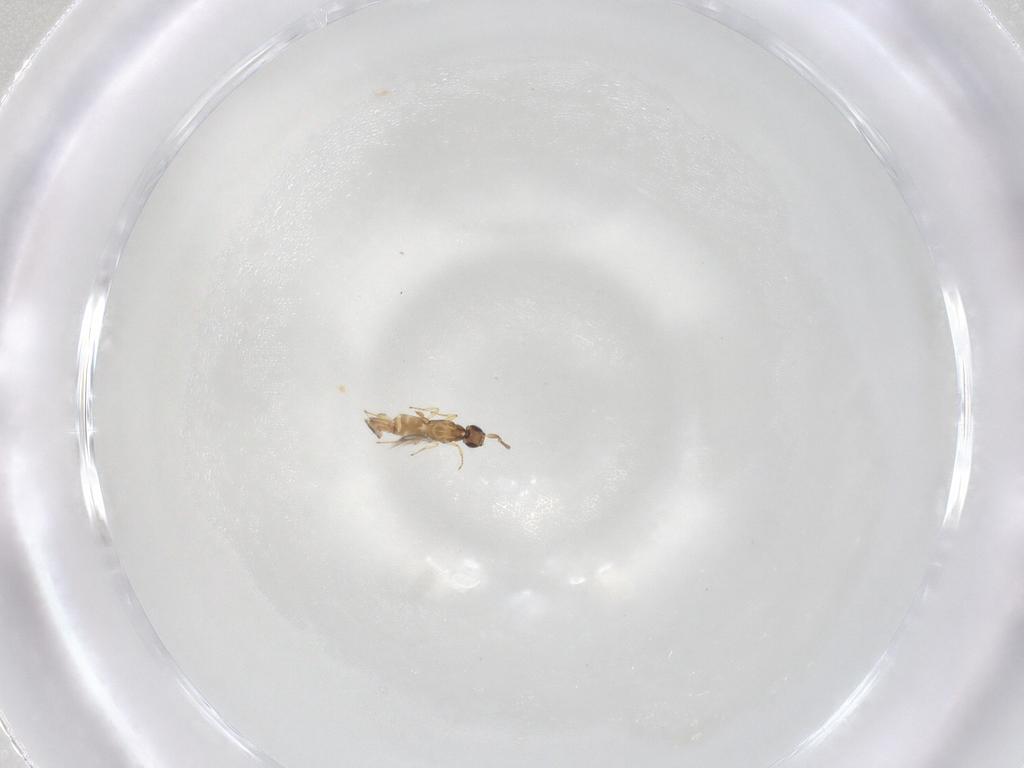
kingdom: Animalia
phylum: Arthropoda
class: Insecta
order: Hymenoptera
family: Mymaridae
